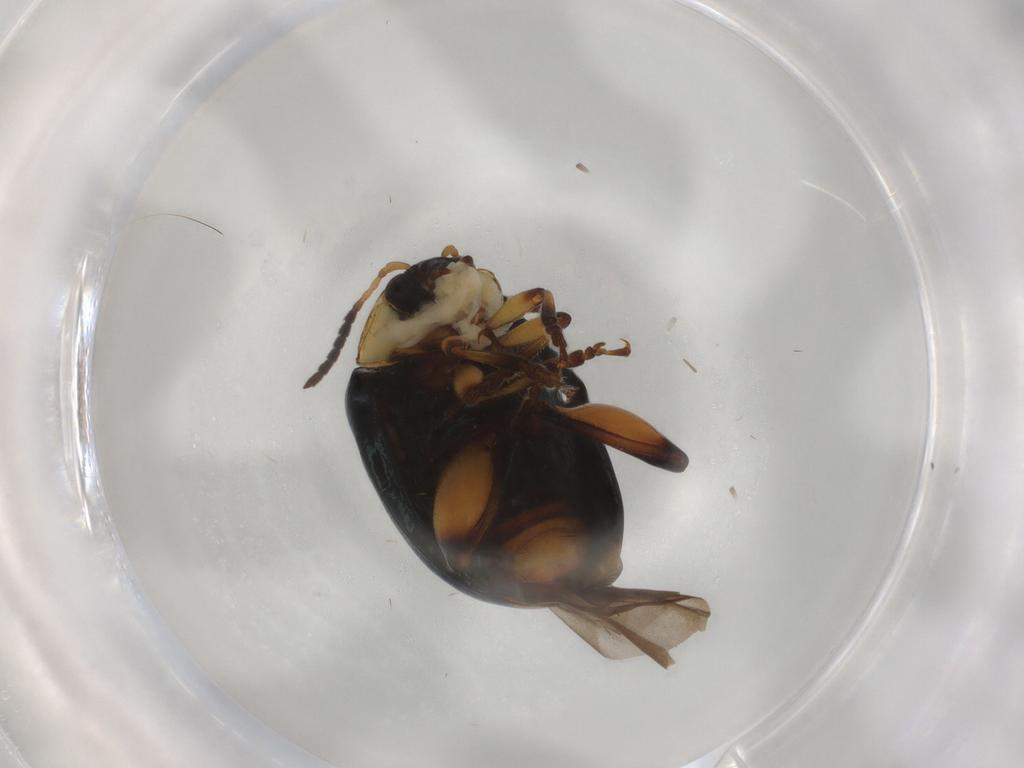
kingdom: Animalia
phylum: Arthropoda
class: Insecta
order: Coleoptera
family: Chrysomelidae
